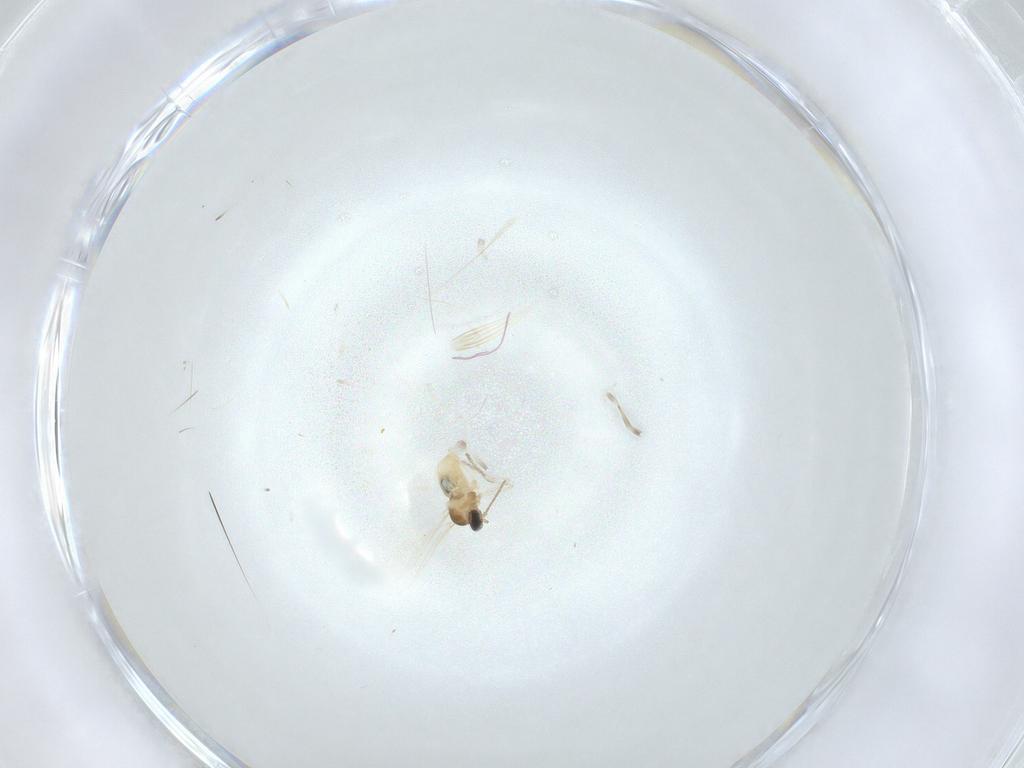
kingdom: Animalia
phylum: Arthropoda
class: Insecta
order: Diptera
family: Cecidomyiidae
